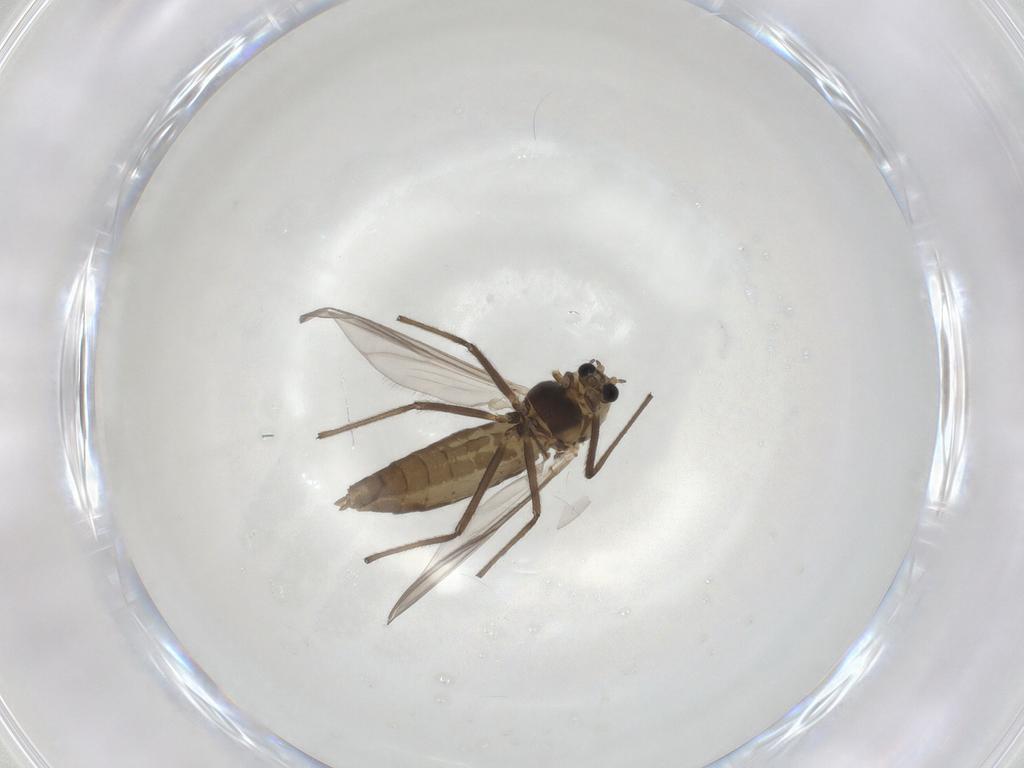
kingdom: Animalia
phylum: Arthropoda
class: Insecta
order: Diptera
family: Chironomidae
